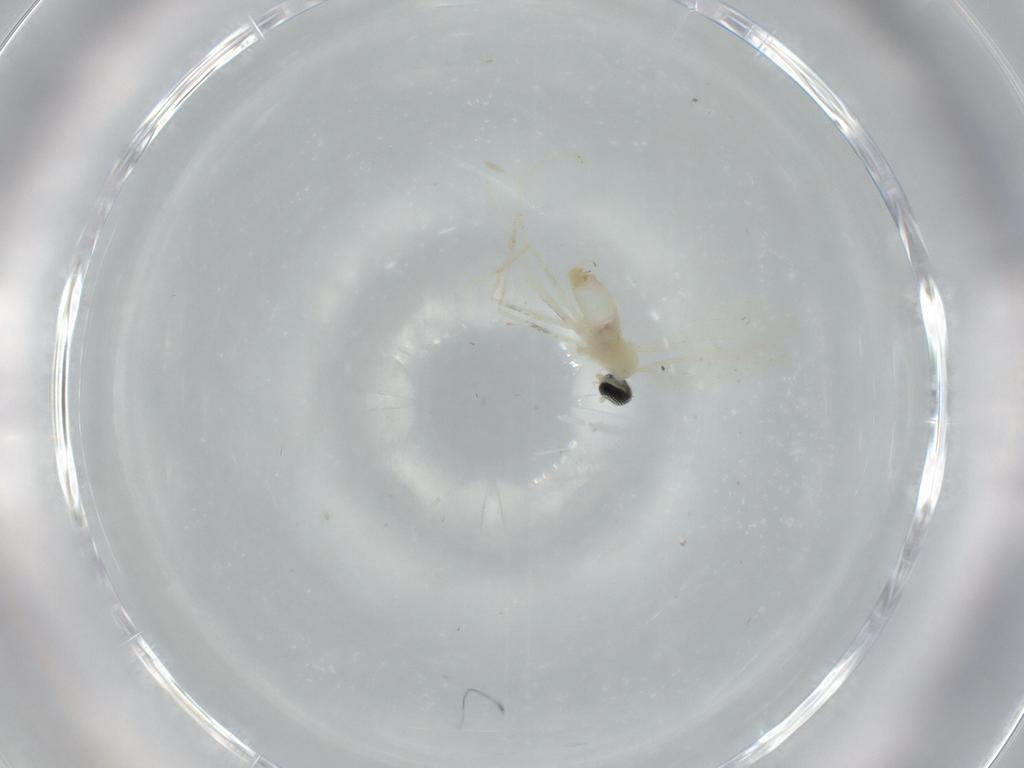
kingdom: Animalia
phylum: Arthropoda
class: Insecta
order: Diptera
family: Cecidomyiidae
